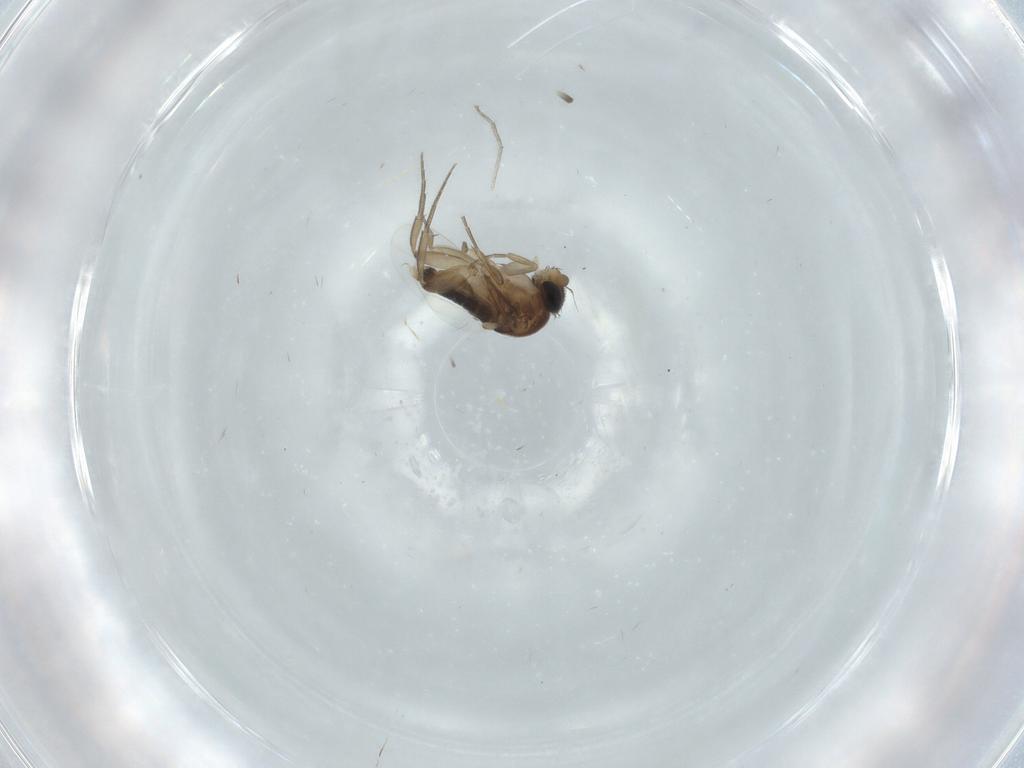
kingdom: Animalia
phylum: Arthropoda
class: Insecta
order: Diptera
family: Phoridae
